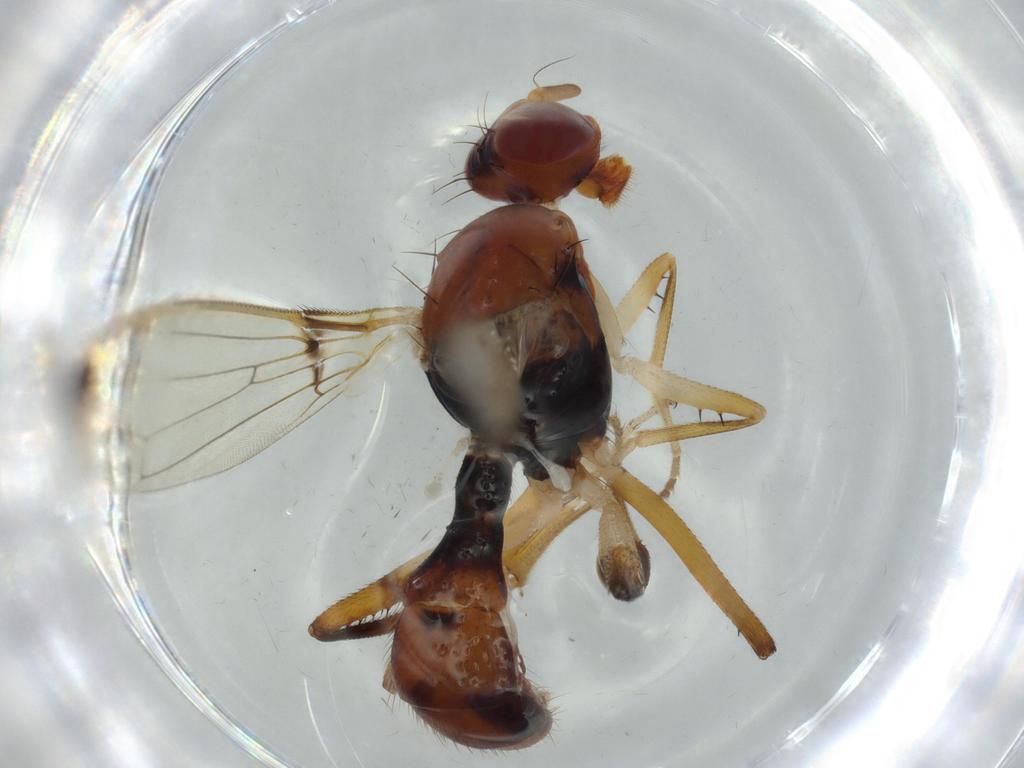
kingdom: Animalia
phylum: Arthropoda
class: Insecta
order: Diptera
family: Richardiidae
